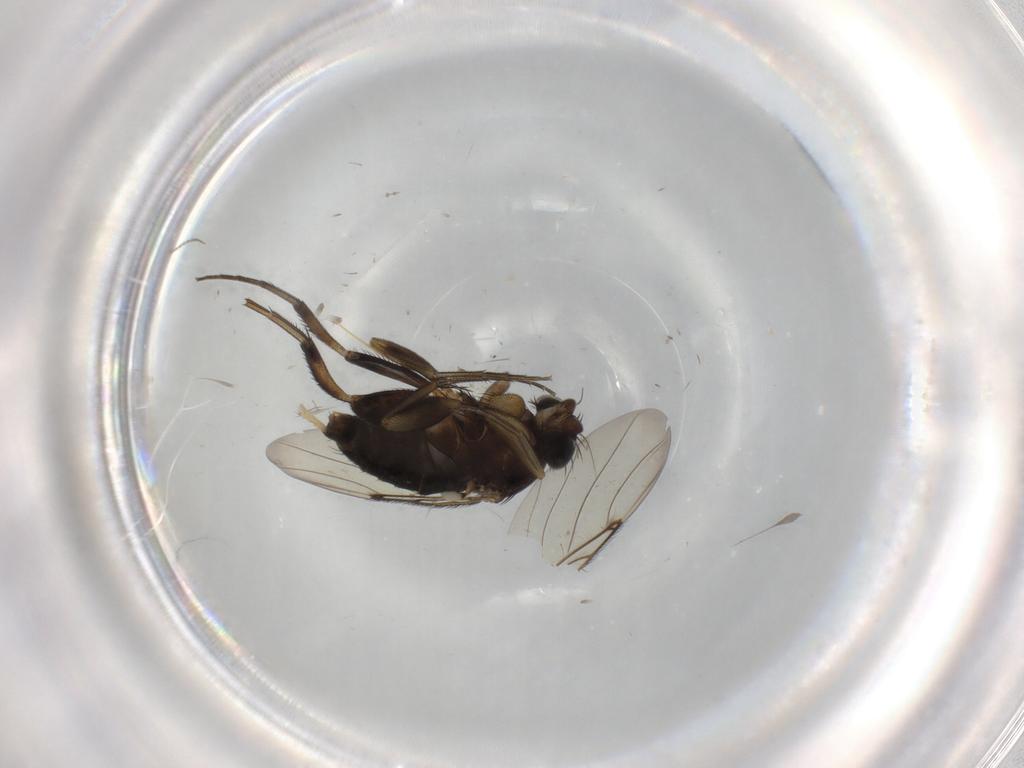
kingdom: Animalia
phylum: Arthropoda
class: Insecta
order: Diptera
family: Phoridae
